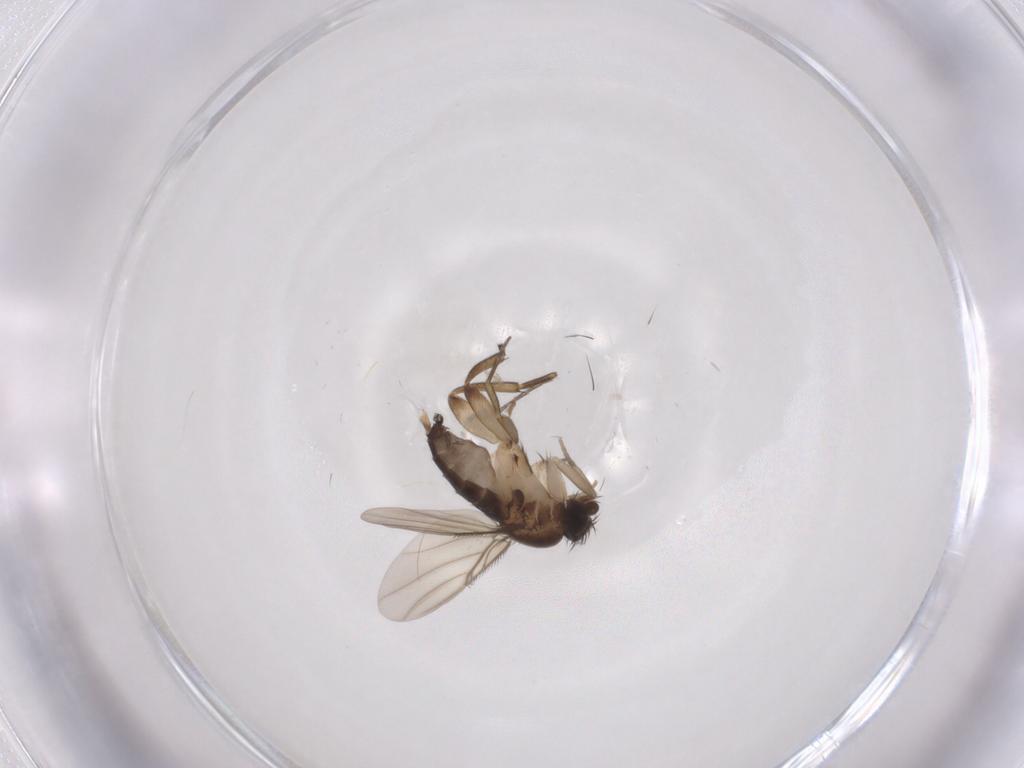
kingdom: Animalia
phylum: Arthropoda
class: Insecta
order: Diptera
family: Phoridae
